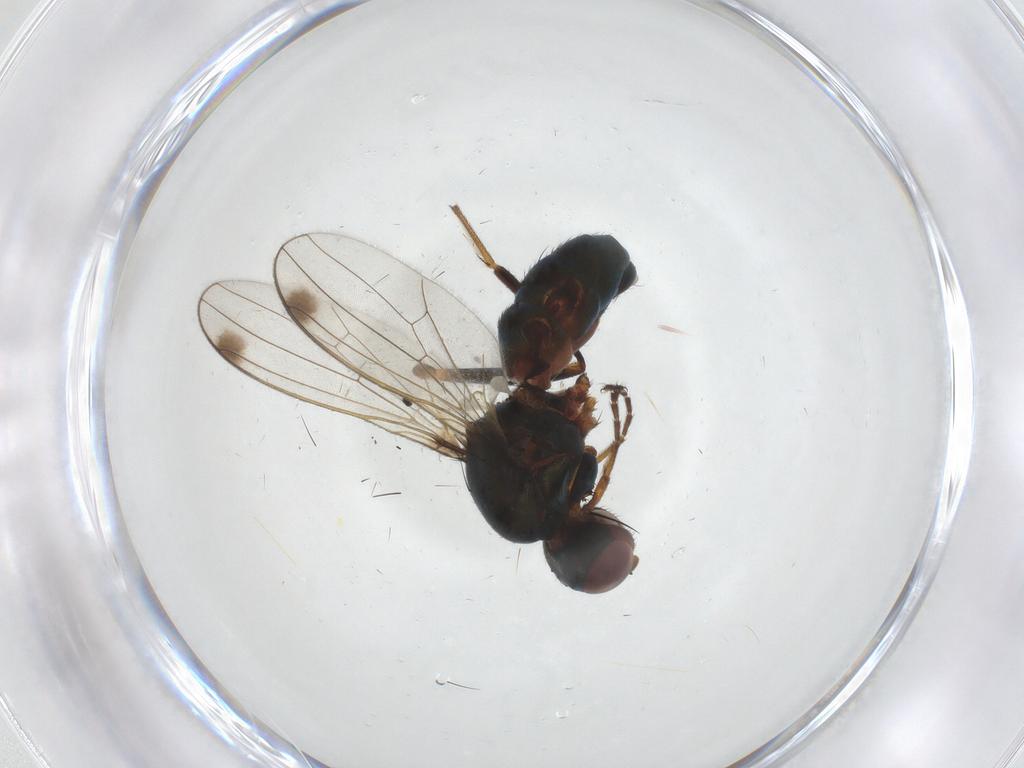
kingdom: Animalia
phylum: Arthropoda
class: Insecta
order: Diptera
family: Sepsidae
